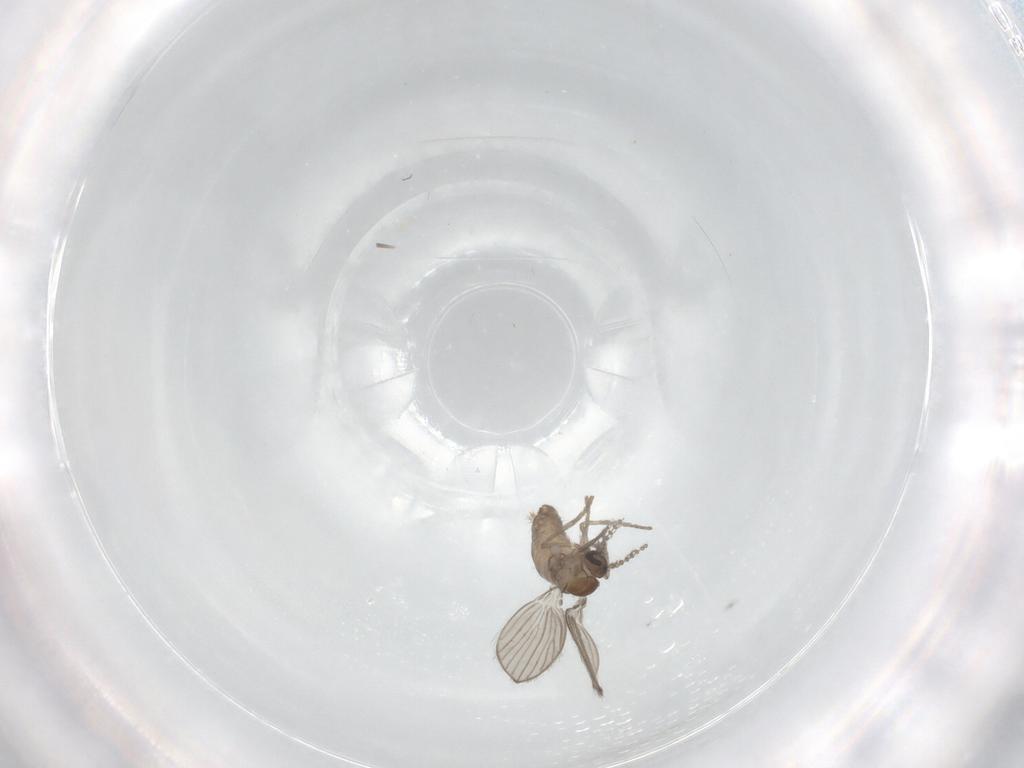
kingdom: Animalia
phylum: Arthropoda
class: Insecta
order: Diptera
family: Psychodidae
